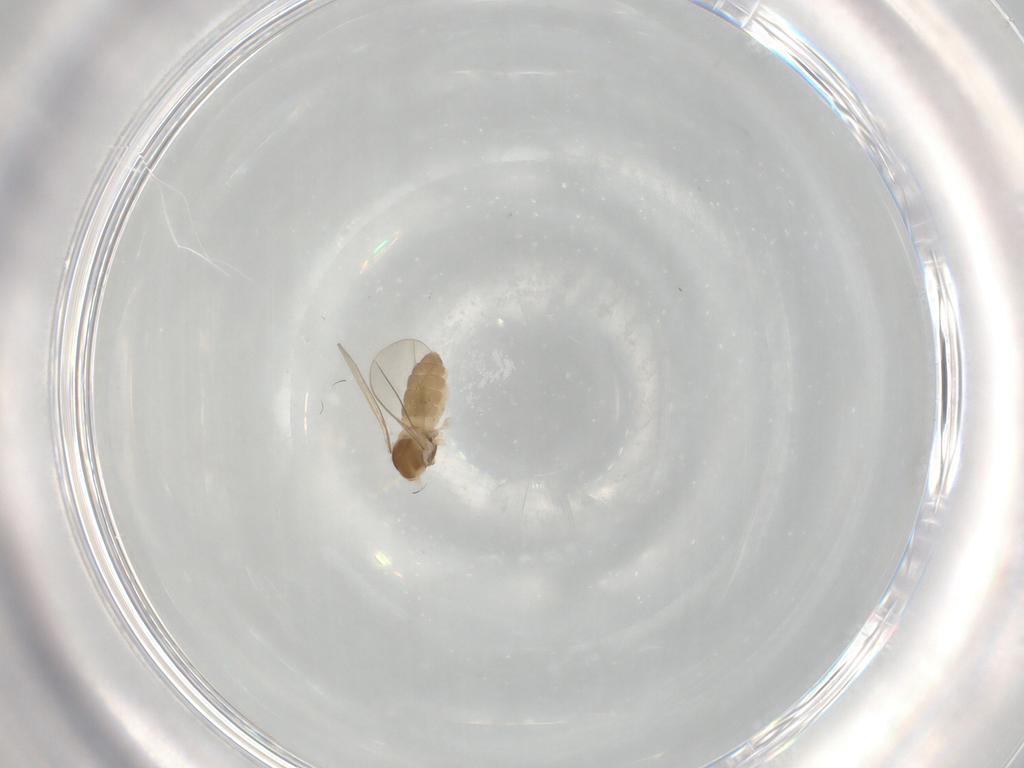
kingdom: Animalia
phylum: Arthropoda
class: Insecta
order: Diptera
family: Cecidomyiidae
